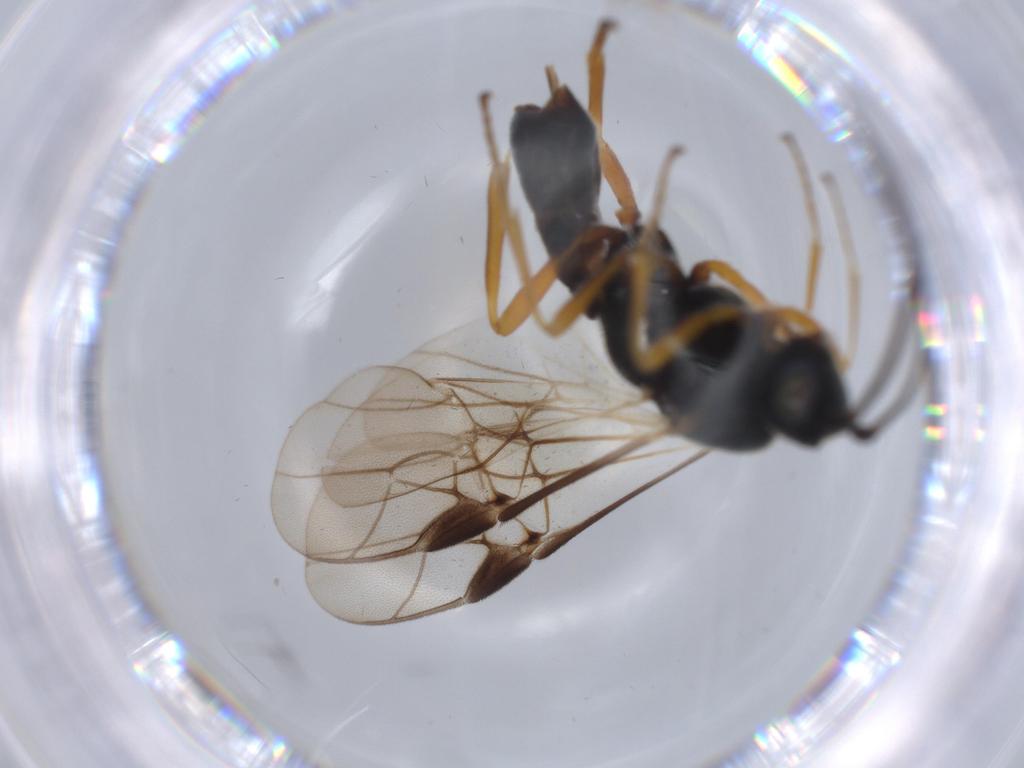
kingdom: Animalia
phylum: Arthropoda
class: Insecta
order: Hymenoptera
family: Braconidae
